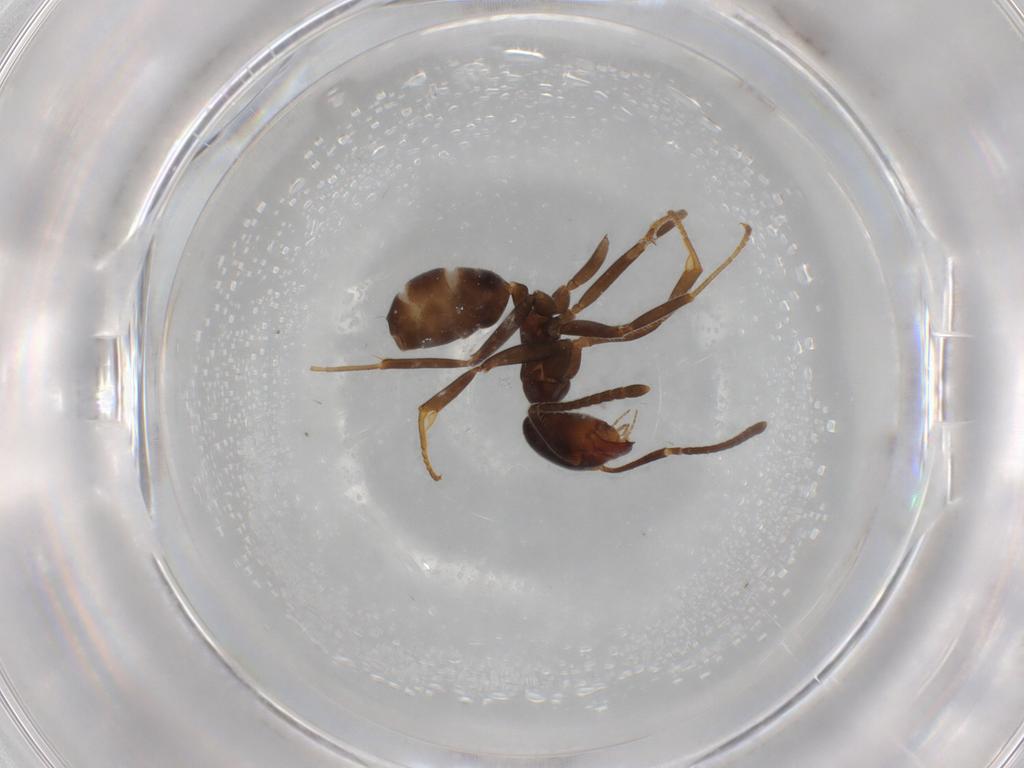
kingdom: Animalia
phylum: Arthropoda
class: Insecta
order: Hymenoptera
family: Formicidae
